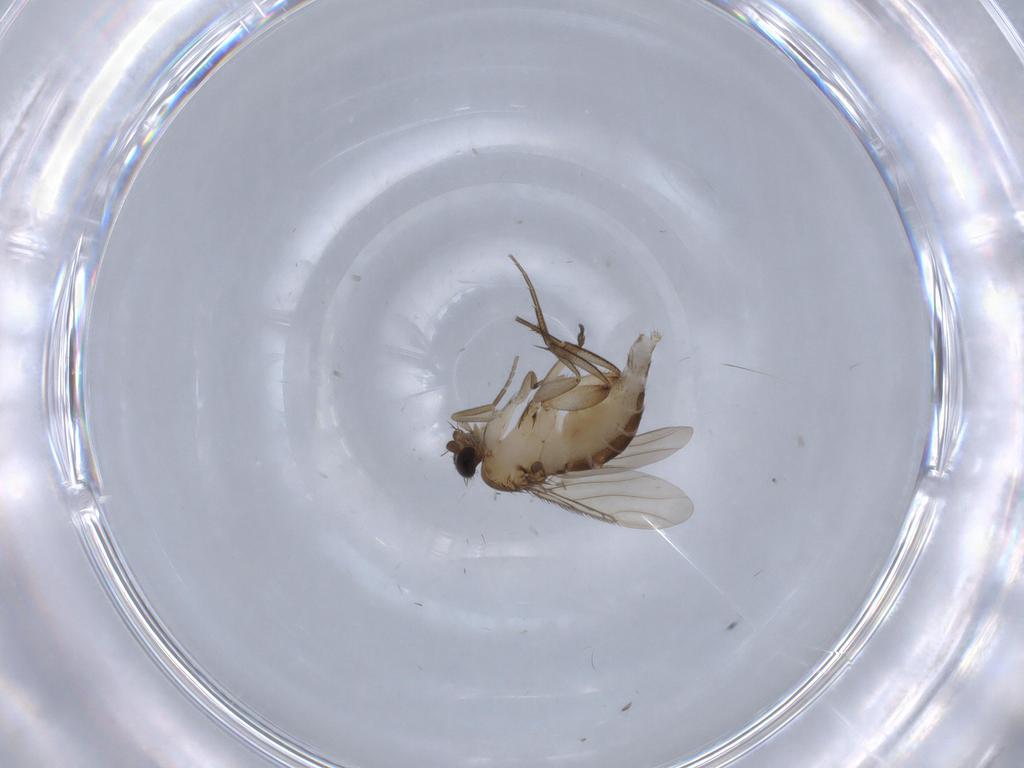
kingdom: Animalia
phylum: Arthropoda
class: Insecta
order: Diptera
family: Phoridae
